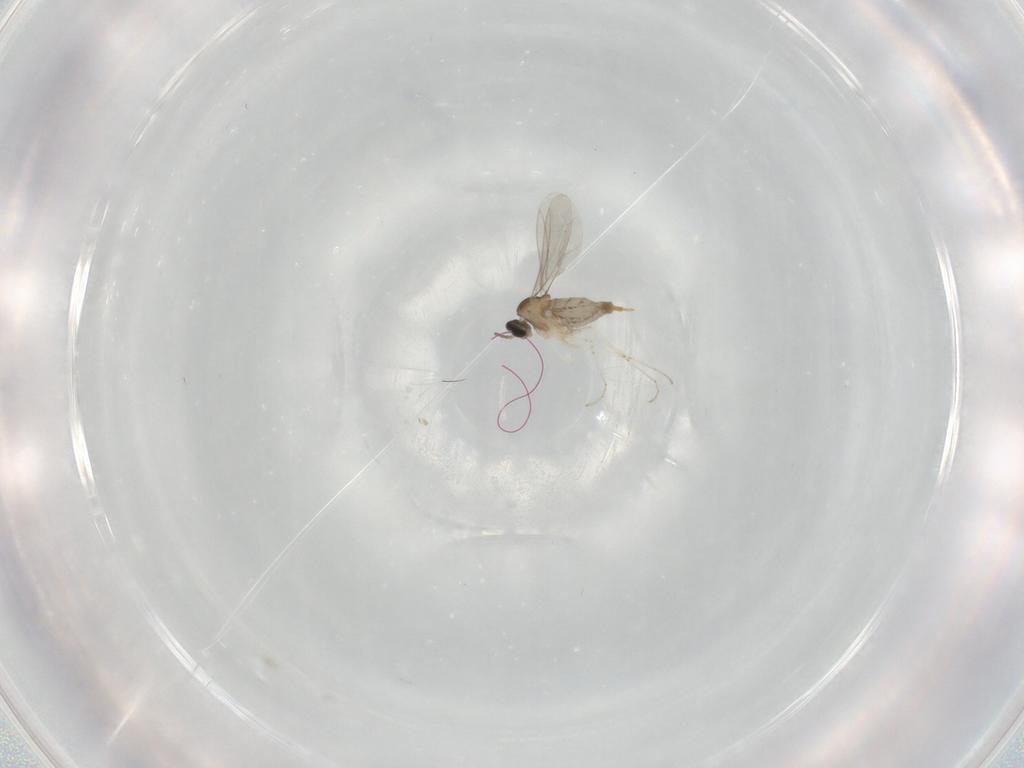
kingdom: Animalia
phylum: Arthropoda
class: Insecta
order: Diptera
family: Cecidomyiidae
